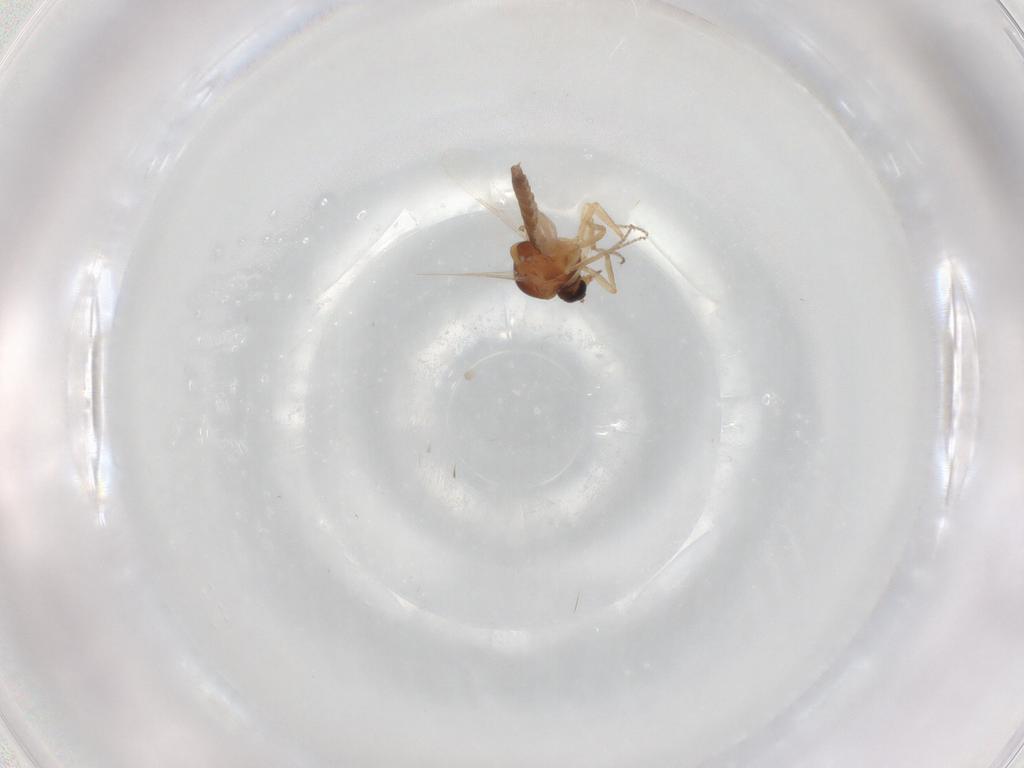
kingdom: Animalia
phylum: Arthropoda
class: Insecta
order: Diptera
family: Ceratopogonidae
